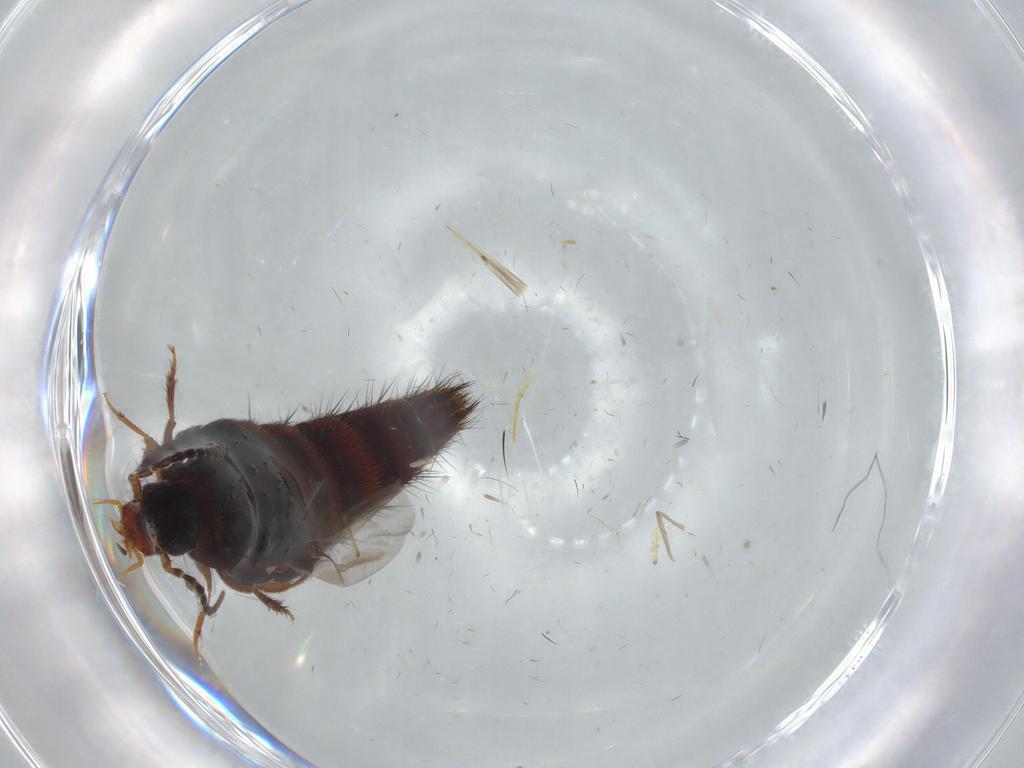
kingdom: Animalia
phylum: Arthropoda
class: Insecta
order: Coleoptera
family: Staphylinidae
